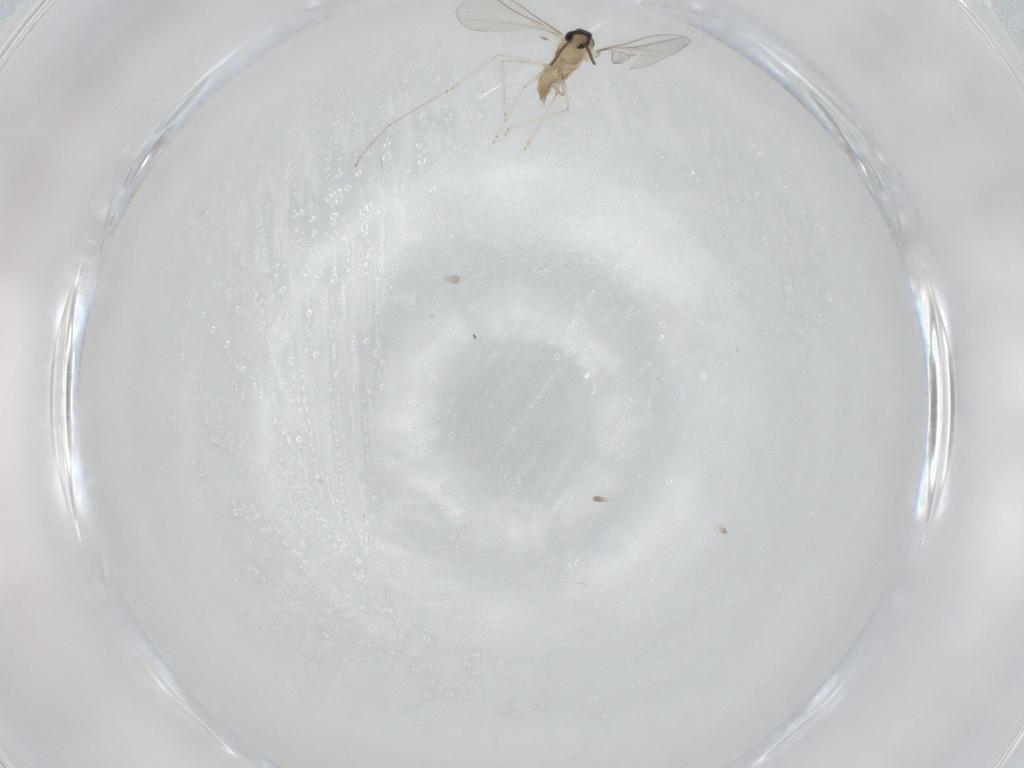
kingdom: Animalia
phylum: Arthropoda
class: Insecta
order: Diptera
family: Cecidomyiidae
